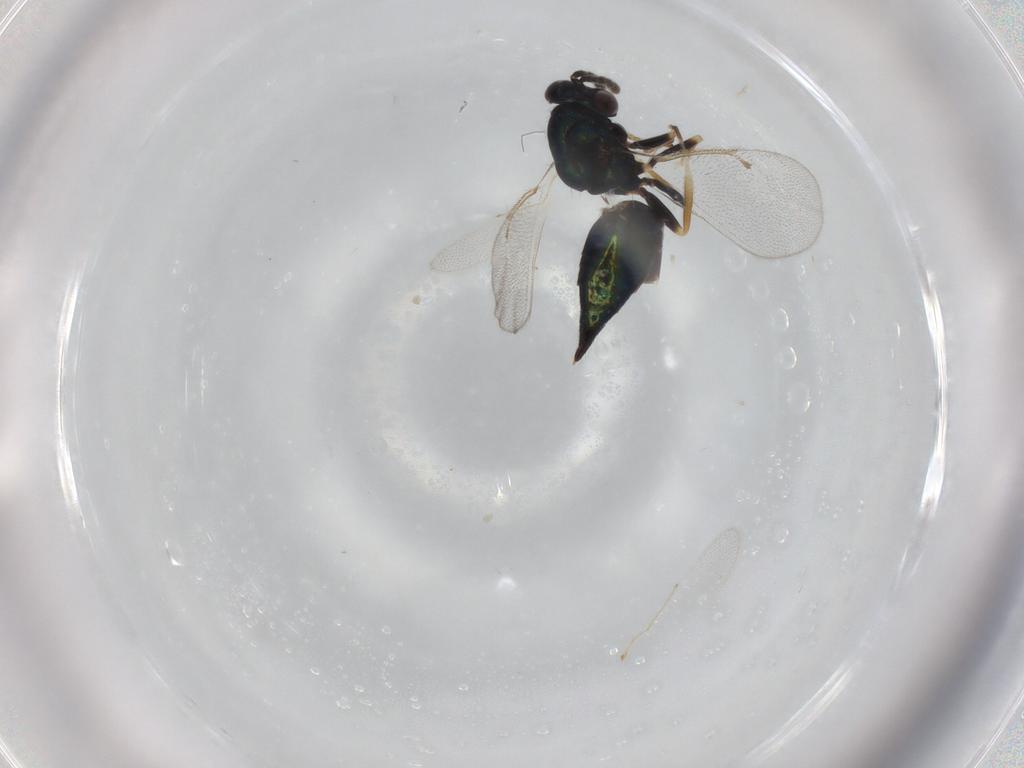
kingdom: Animalia
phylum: Arthropoda
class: Insecta
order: Hymenoptera
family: Eulophidae
